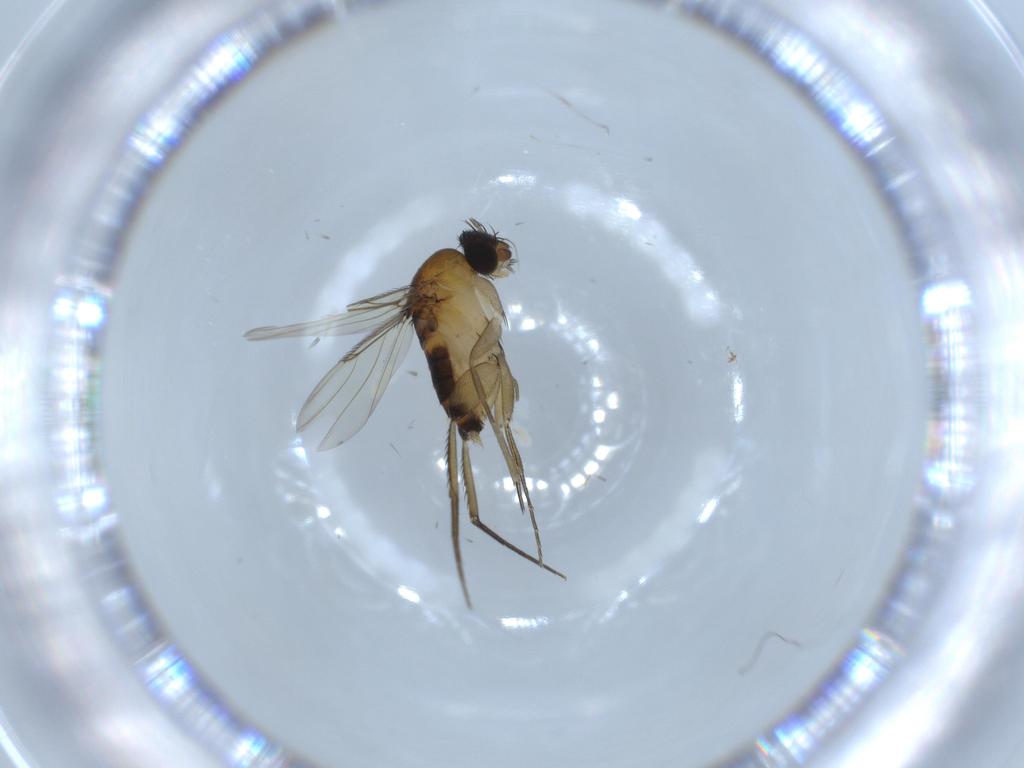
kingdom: Animalia
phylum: Arthropoda
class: Insecta
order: Diptera
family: Phoridae
